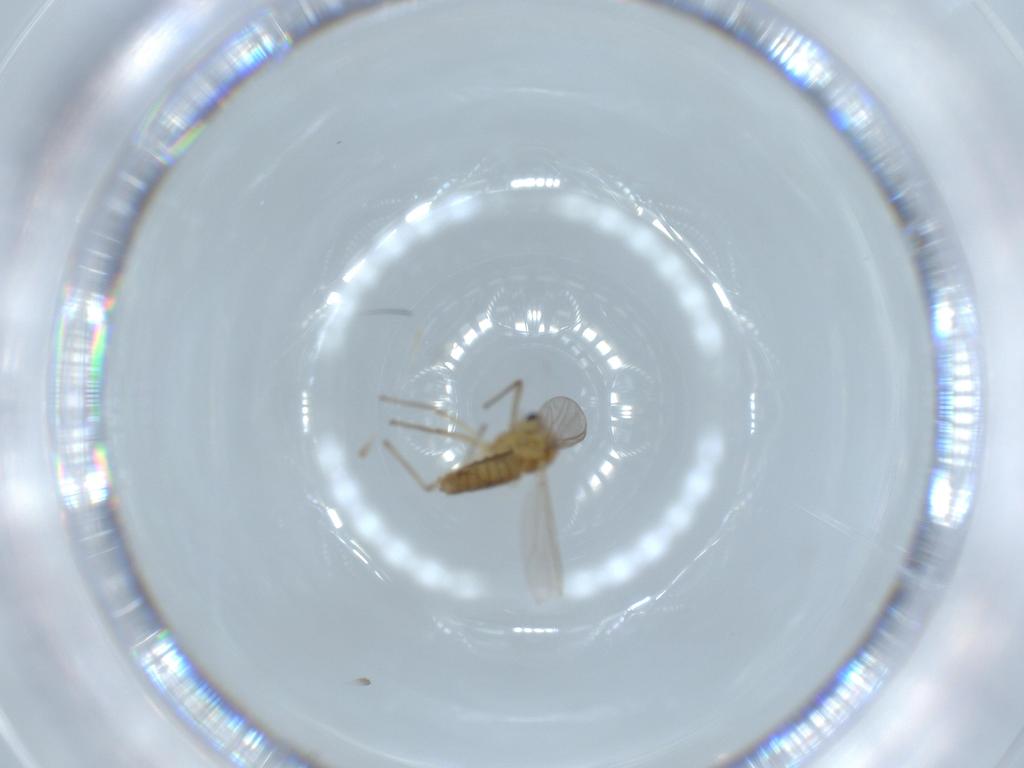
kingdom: Animalia
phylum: Arthropoda
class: Insecta
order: Diptera
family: Chironomidae
